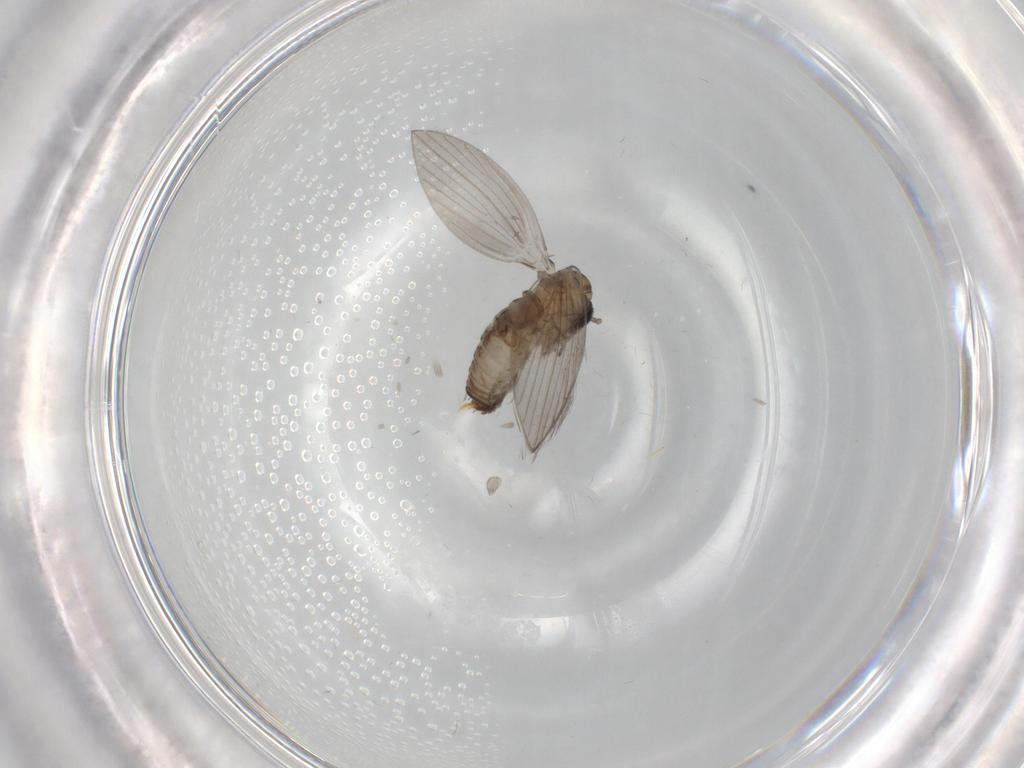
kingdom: Animalia
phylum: Arthropoda
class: Insecta
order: Diptera
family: Psychodidae
